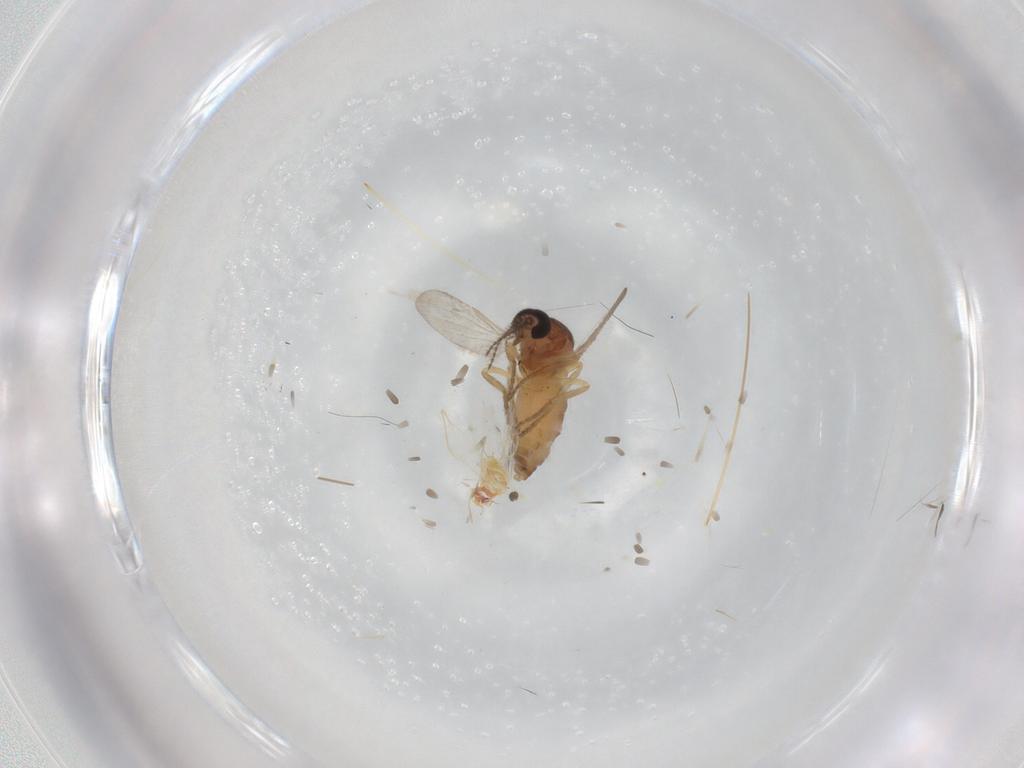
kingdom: Animalia
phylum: Arthropoda
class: Insecta
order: Diptera
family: Ceratopogonidae
